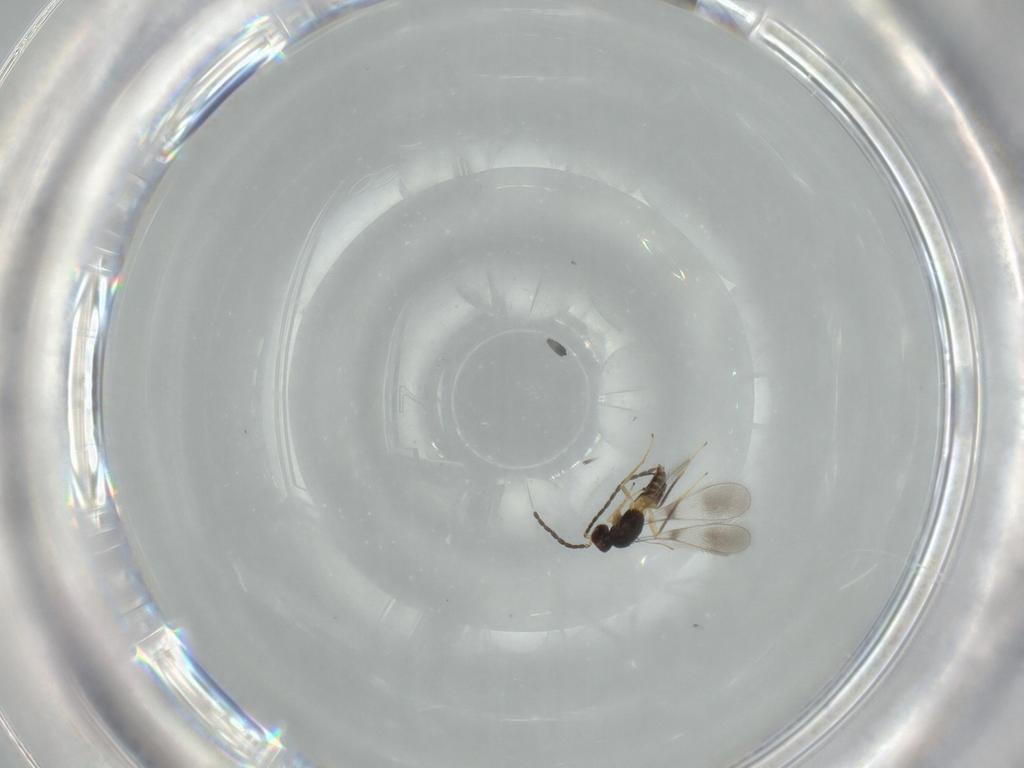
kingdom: Animalia
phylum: Arthropoda
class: Insecta
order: Hymenoptera
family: Mymaridae
